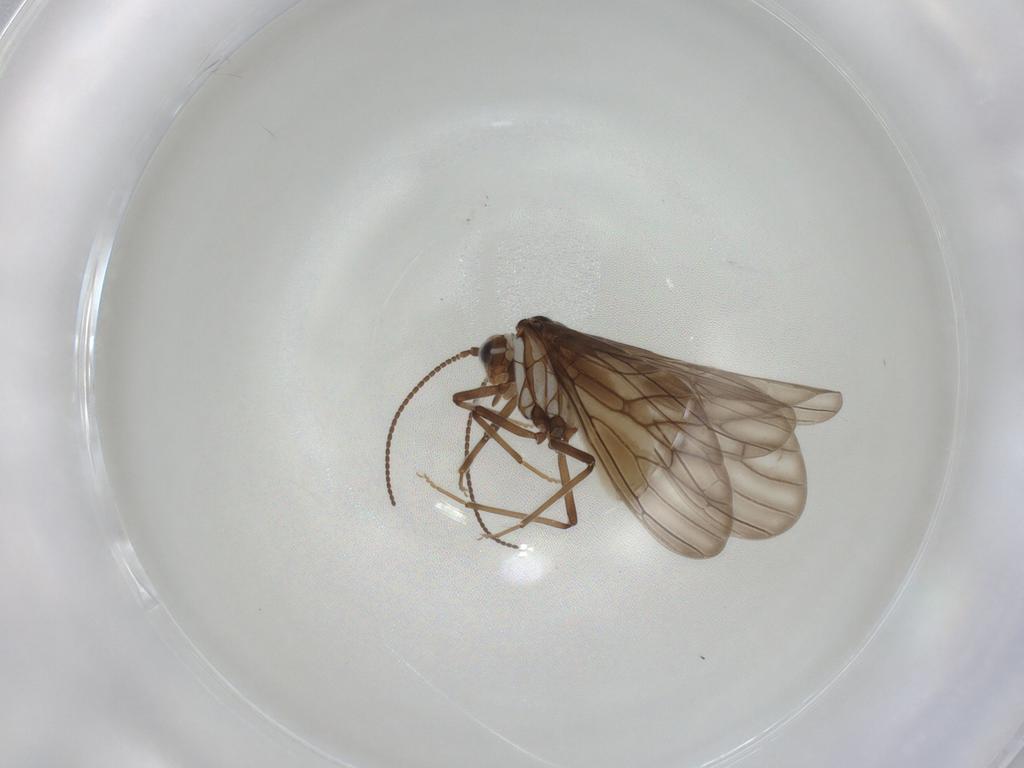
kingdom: Animalia
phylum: Arthropoda
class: Insecta
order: Neuroptera
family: Coniopterygidae
